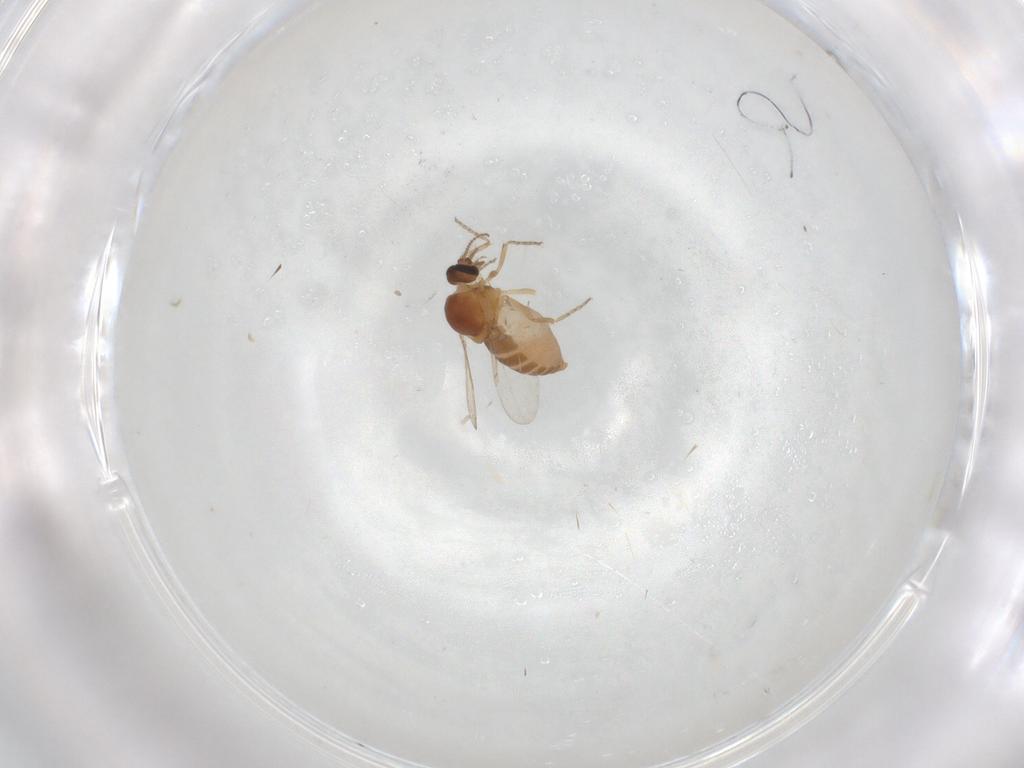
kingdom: Animalia
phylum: Arthropoda
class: Insecta
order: Diptera
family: Ceratopogonidae
